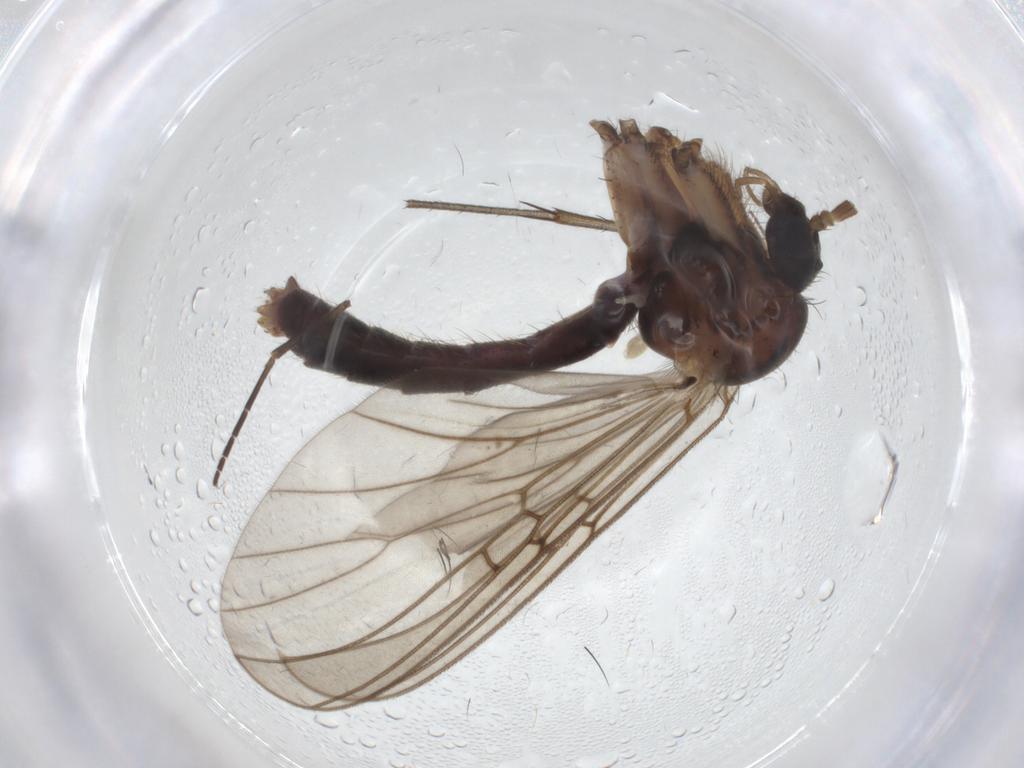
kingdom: Animalia
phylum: Arthropoda
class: Insecta
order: Diptera
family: Mycetophilidae
